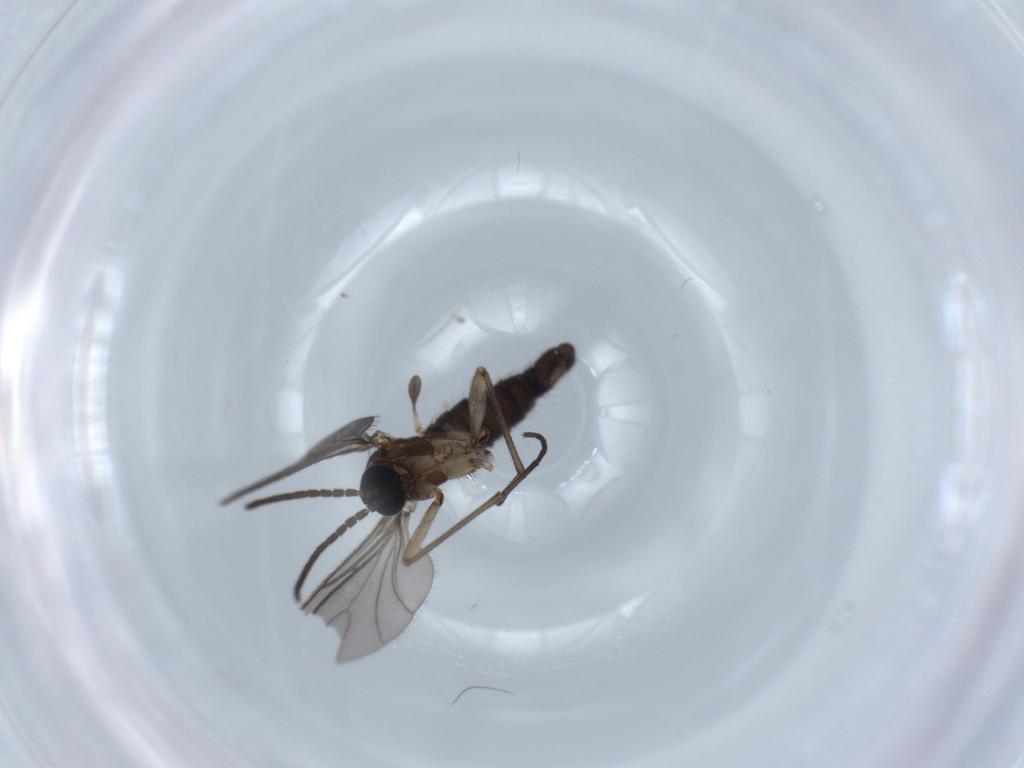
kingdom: Animalia
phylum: Arthropoda
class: Insecta
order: Diptera
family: Sciaridae
